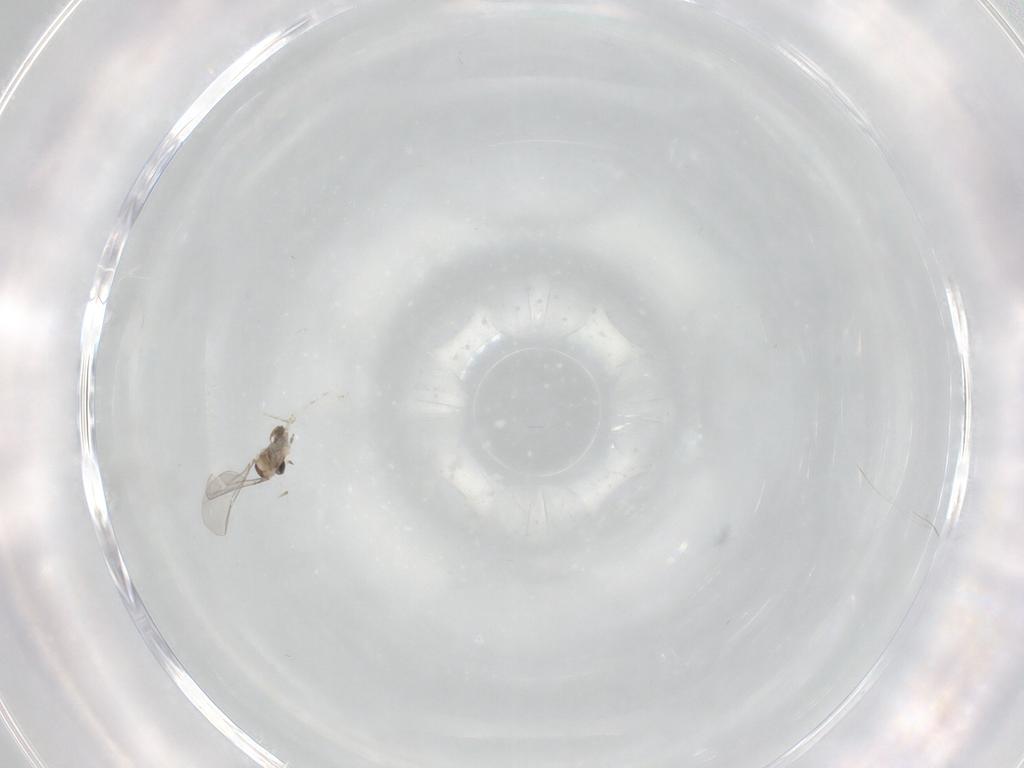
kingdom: Animalia
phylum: Arthropoda
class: Insecta
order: Diptera
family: Cecidomyiidae
